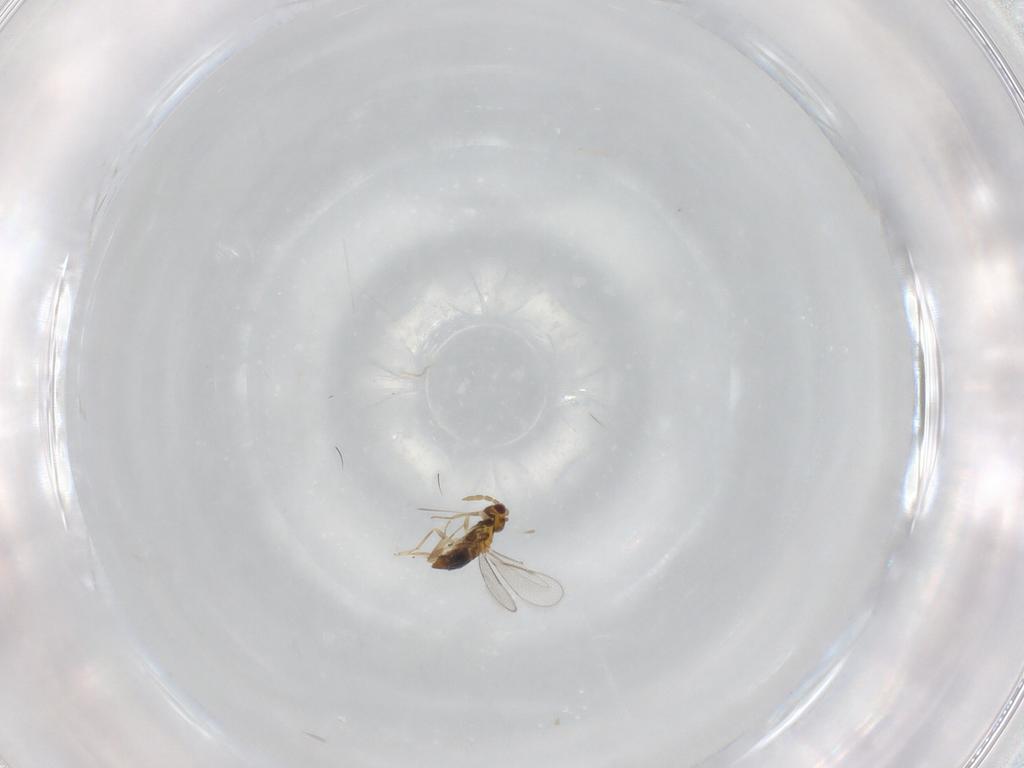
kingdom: Animalia
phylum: Arthropoda
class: Insecta
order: Hymenoptera
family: Aphelinidae
